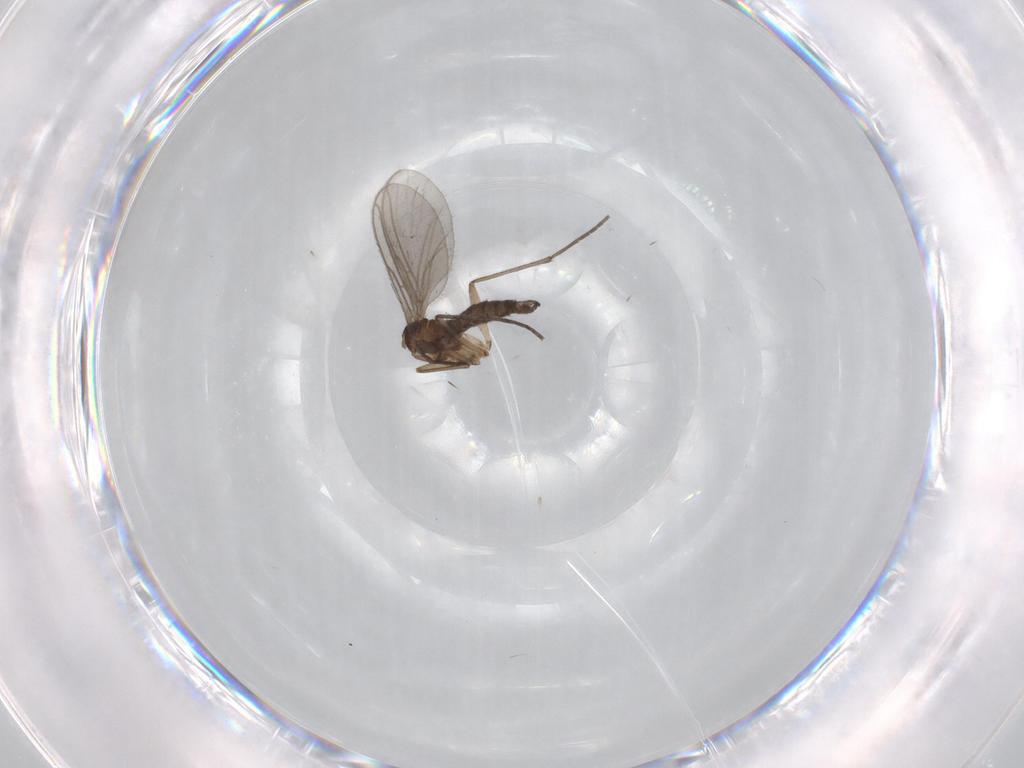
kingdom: Animalia
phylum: Arthropoda
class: Insecta
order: Diptera
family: Sciaridae
